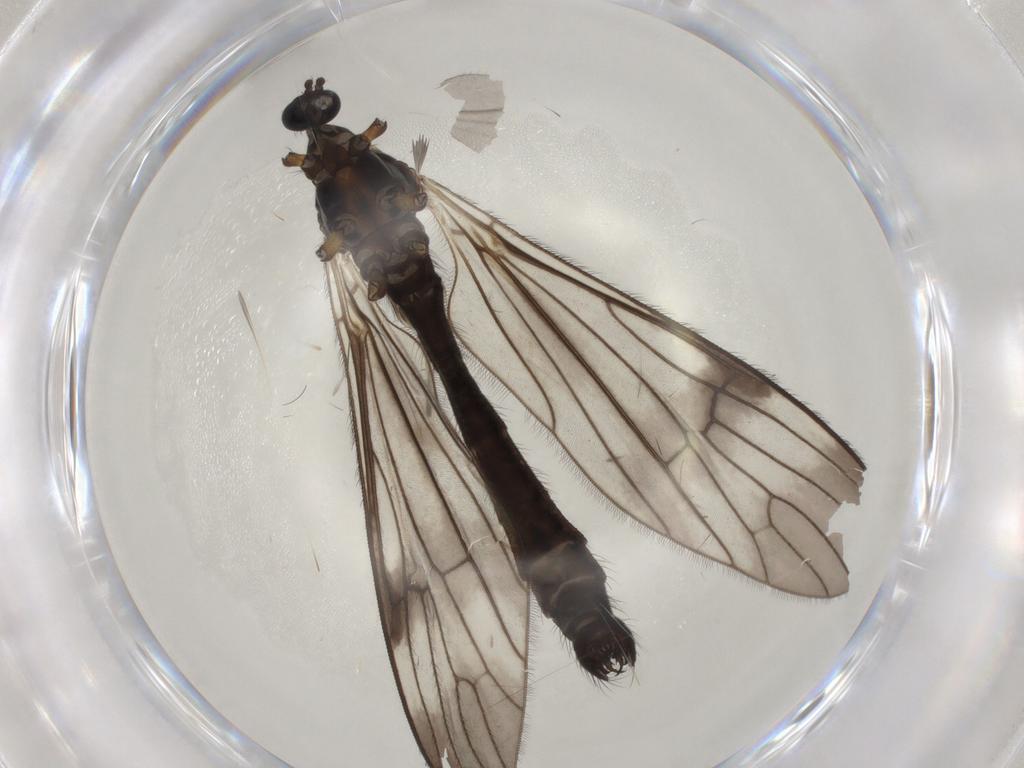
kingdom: Animalia
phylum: Arthropoda
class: Insecta
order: Diptera
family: Limoniidae
